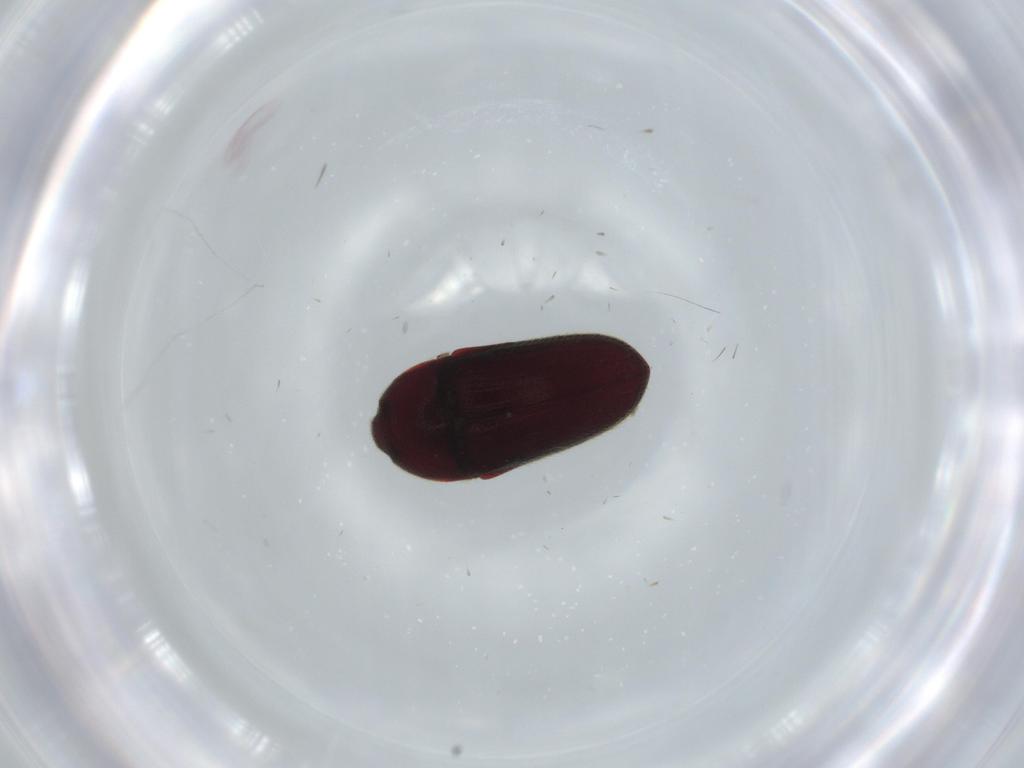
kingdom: Animalia
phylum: Arthropoda
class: Insecta
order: Coleoptera
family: Throscidae
